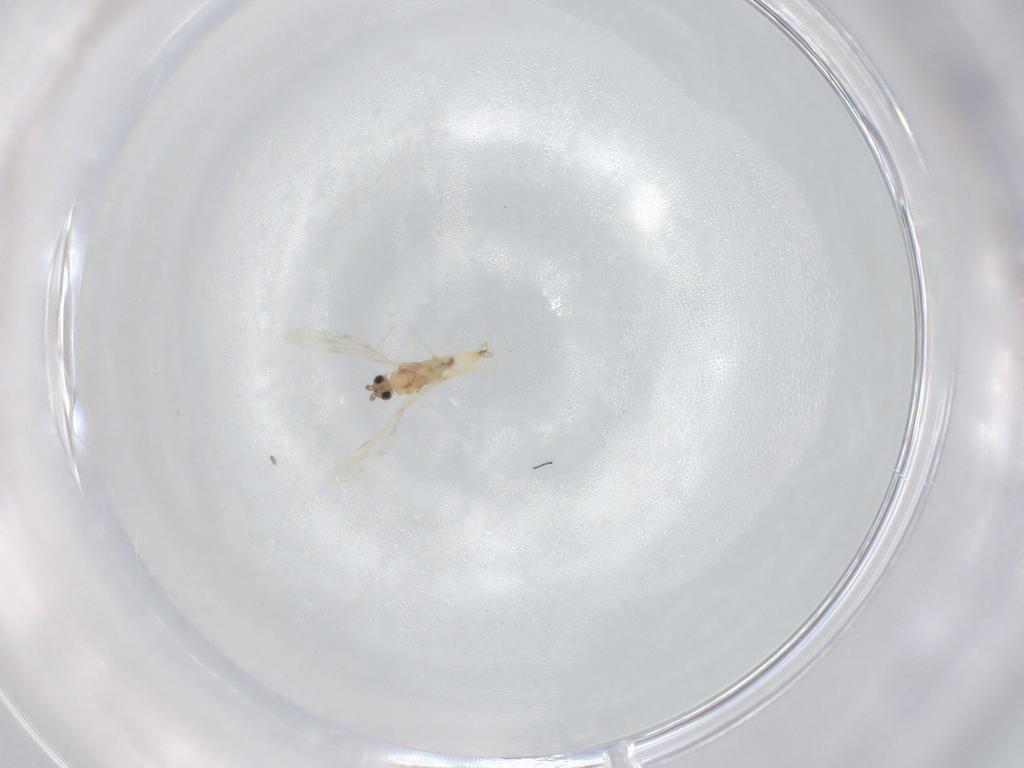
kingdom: Animalia
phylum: Arthropoda
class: Insecta
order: Diptera
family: Cecidomyiidae
